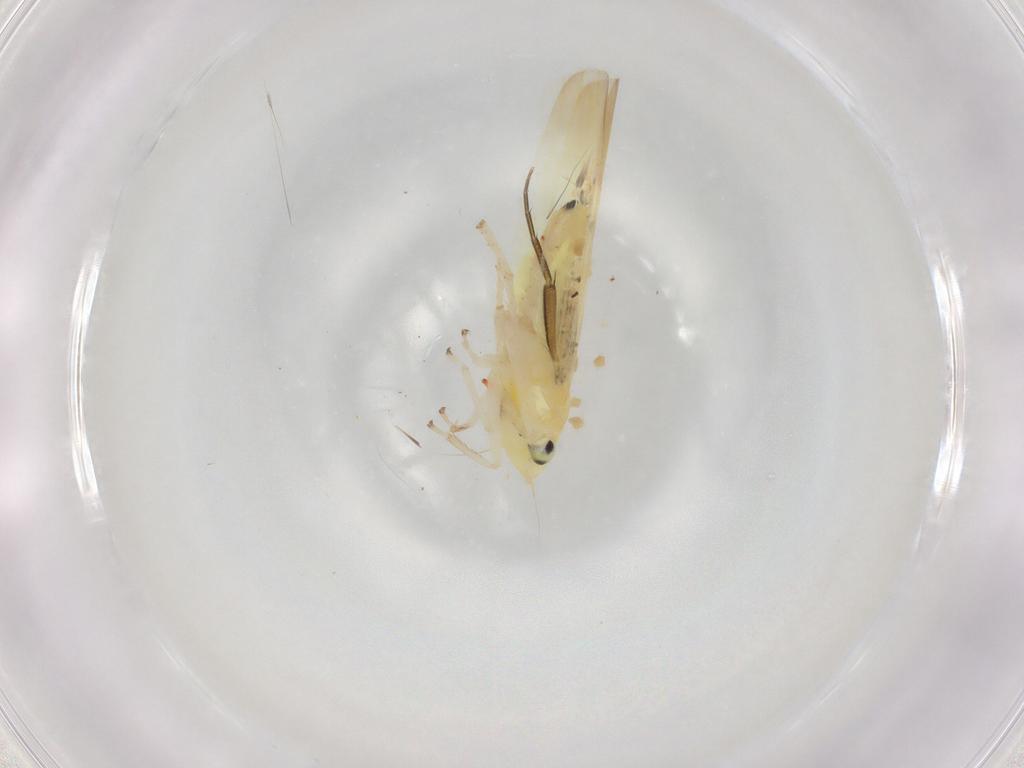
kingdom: Animalia
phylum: Arthropoda
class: Insecta
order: Hemiptera
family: Cicadellidae
